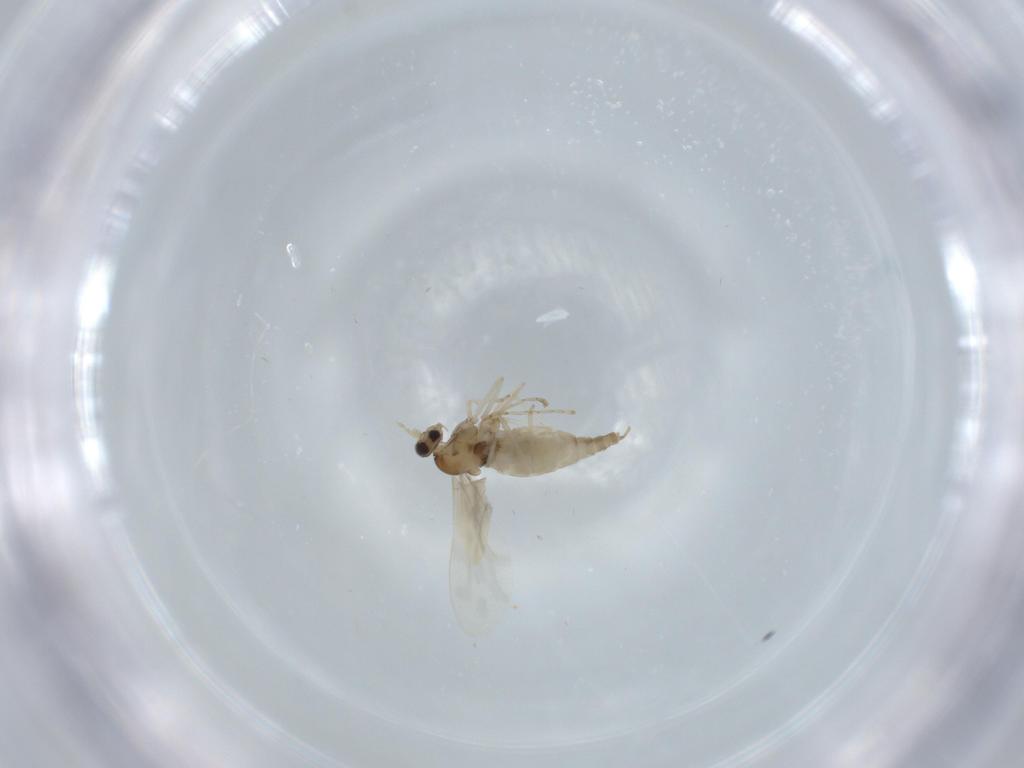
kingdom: Animalia
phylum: Arthropoda
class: Insecta
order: Diptera
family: Cecidomyiidae
